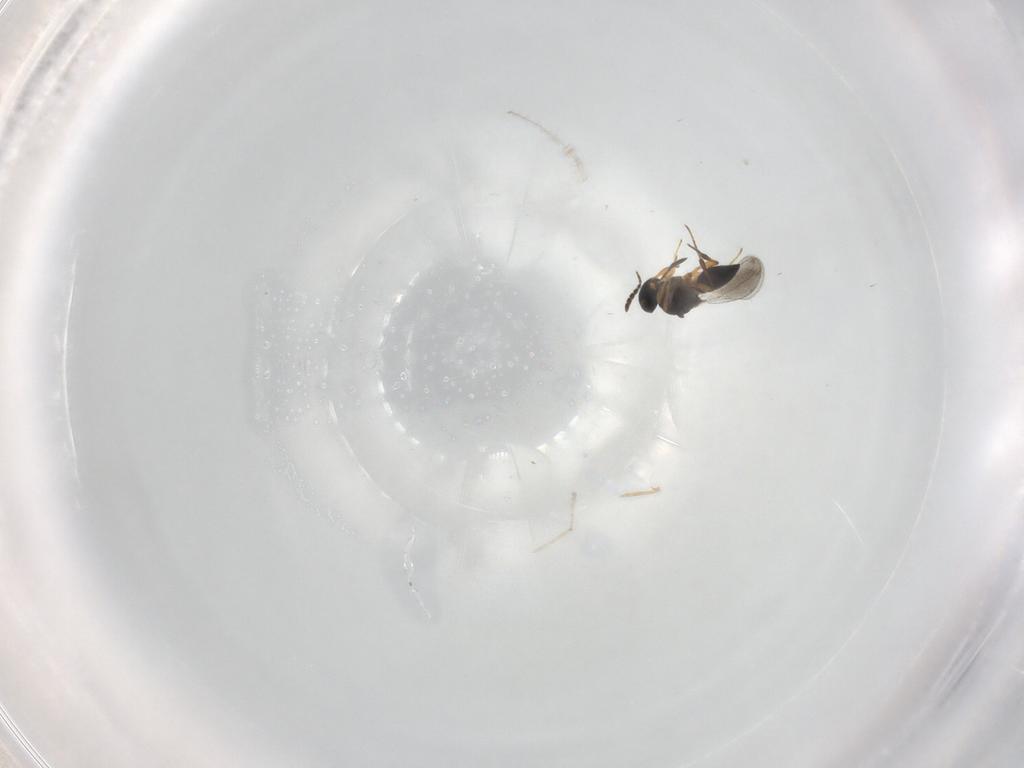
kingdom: Animalia
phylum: Arthropoda
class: Insecta
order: Hymenoptera
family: Platygastridae
